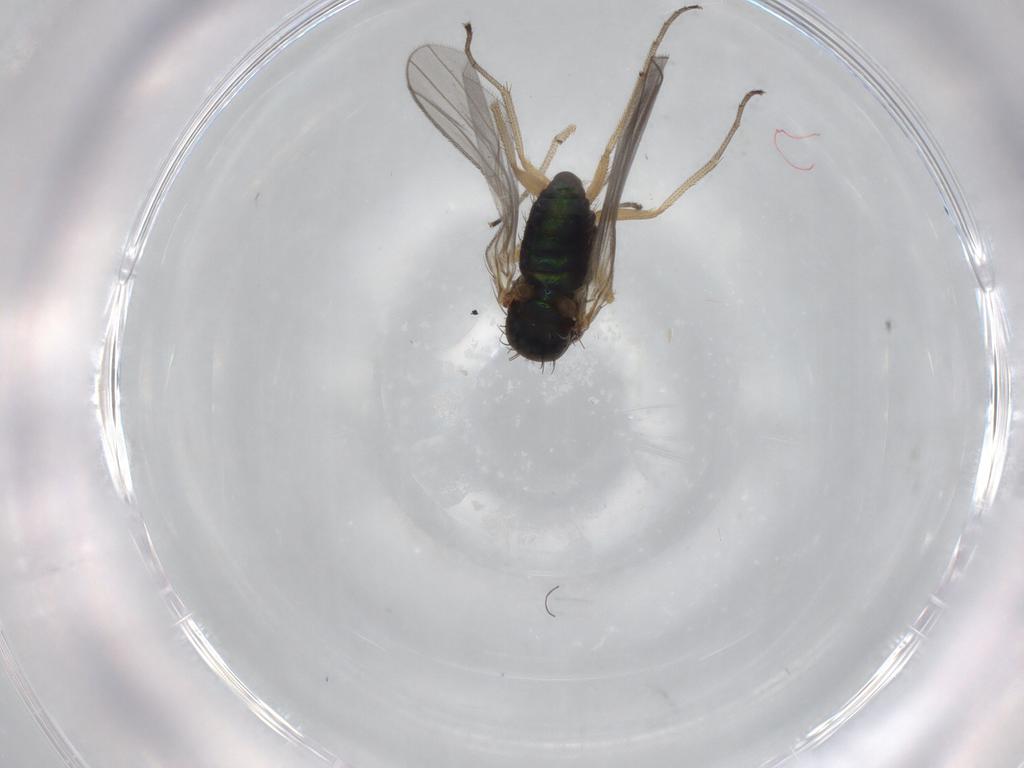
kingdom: Animalia
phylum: Arthropoda
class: Insecta
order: Diptera
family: Dolichopodidae
